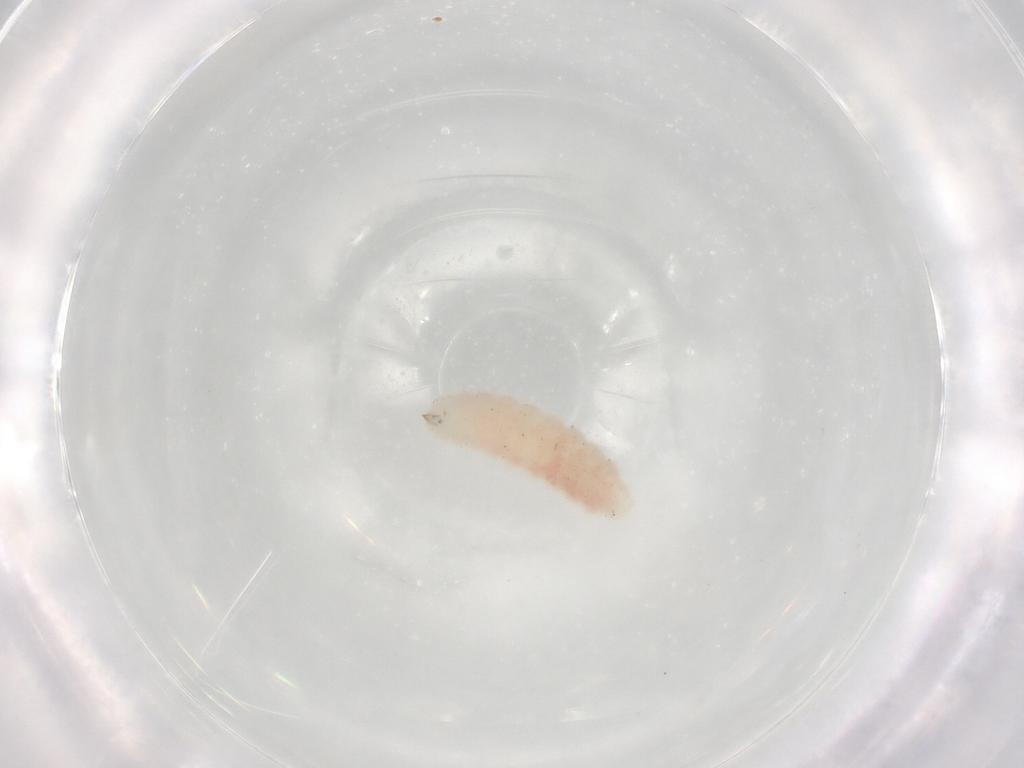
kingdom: Animalia
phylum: Arthropoda
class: Insecta
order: Diptera
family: Cecidomyiidae
